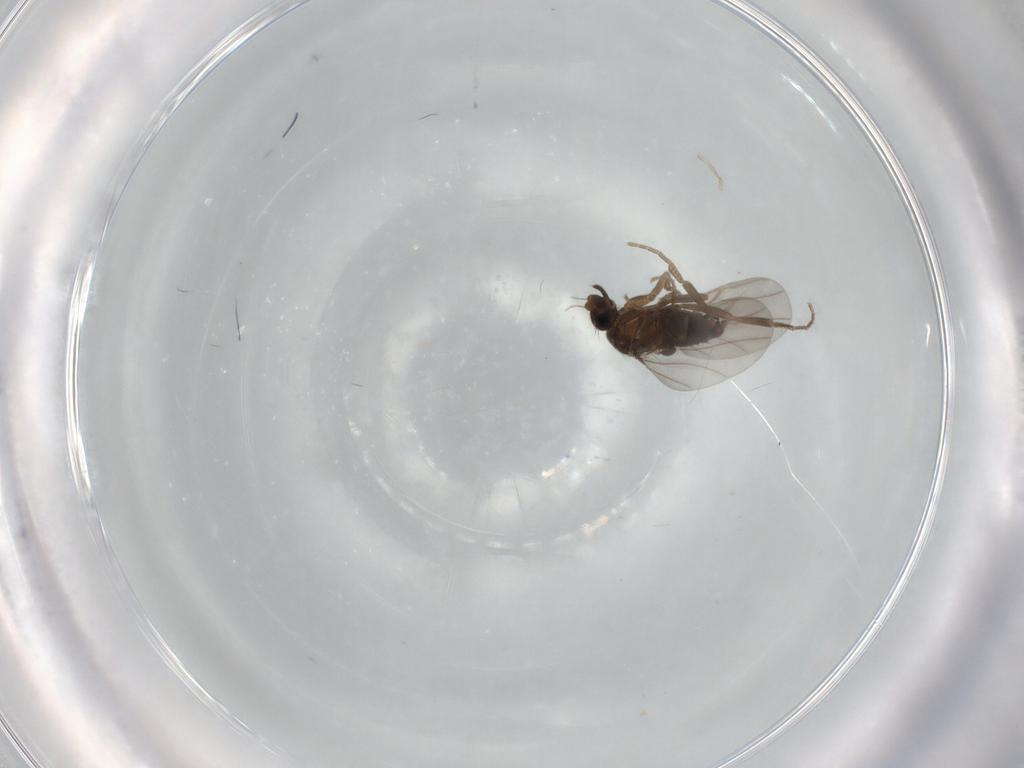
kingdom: Animalia
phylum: Arthropoda
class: Insecta
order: Diptera
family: Phoridae
